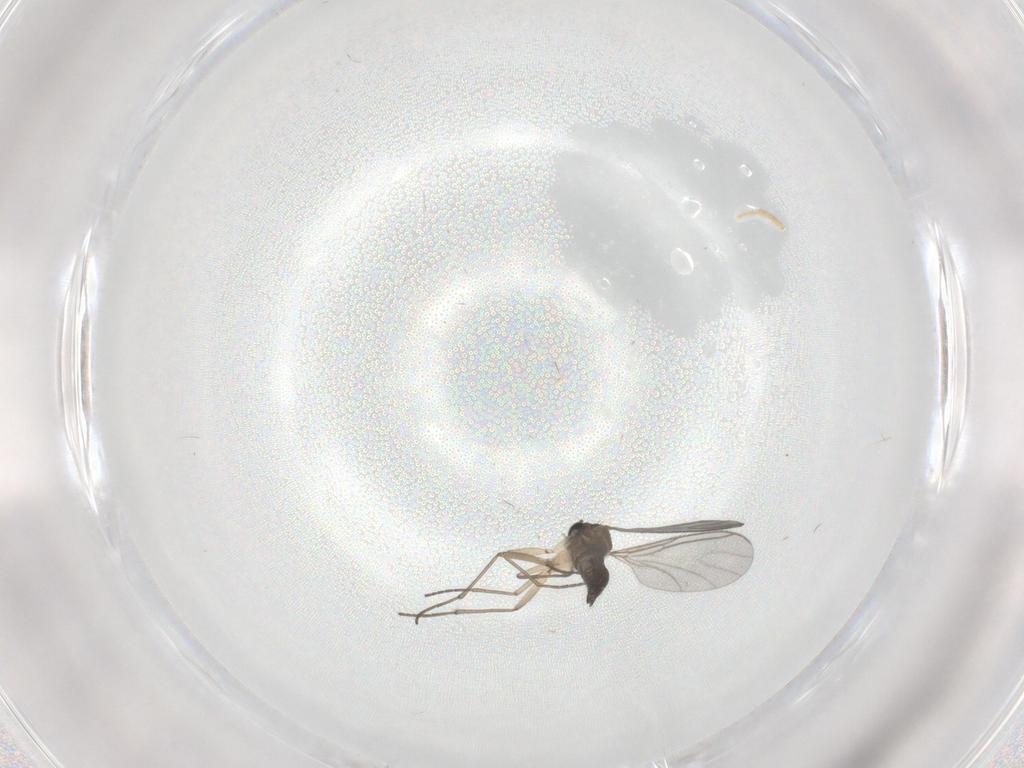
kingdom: Animalia
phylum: Arthropoda
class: Insecta
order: Diptera
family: Sciaridae
